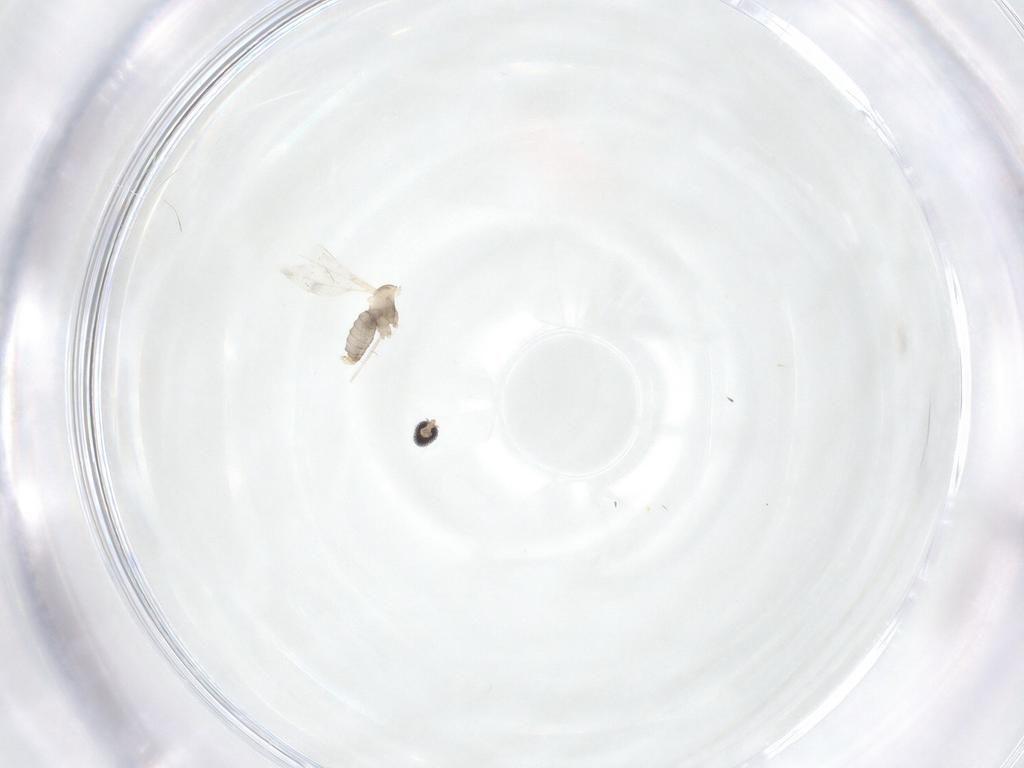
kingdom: Animalia
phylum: Arthropoda
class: Insecta
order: Diptera
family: Cecidomyiidae
